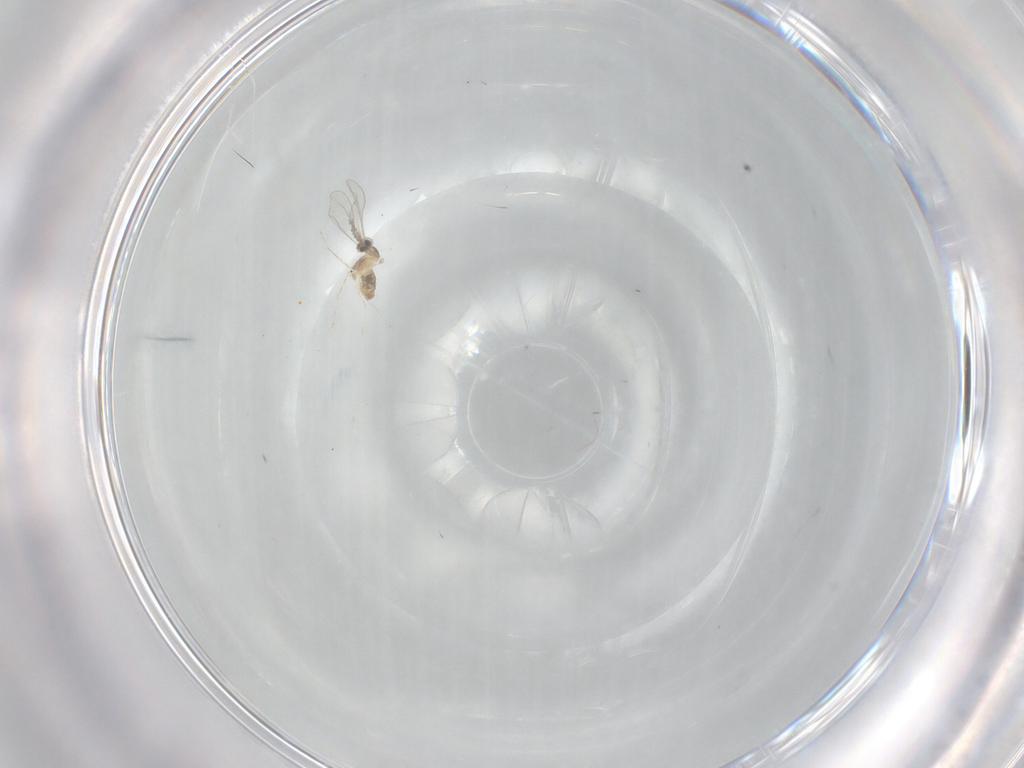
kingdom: Animalia
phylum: Arthropoda
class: Insecta
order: Diptera
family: Cecidomyiidae
